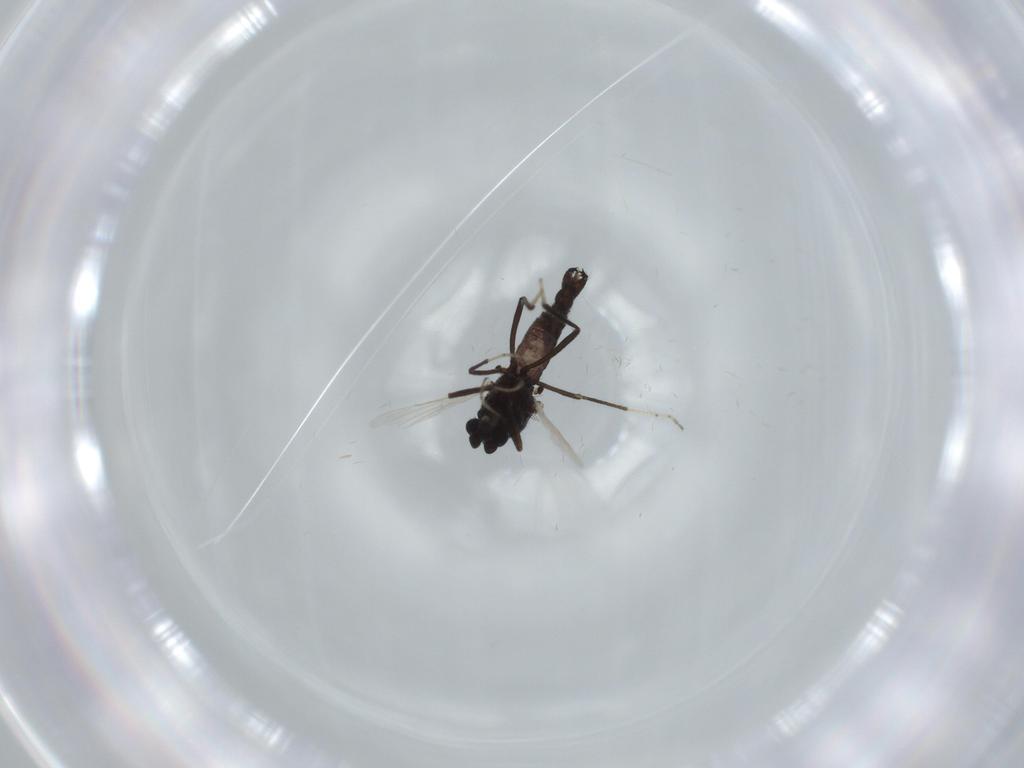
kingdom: Animalia
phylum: Arthropoda
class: Insecta
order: Diptera
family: Ceratopogonidae
